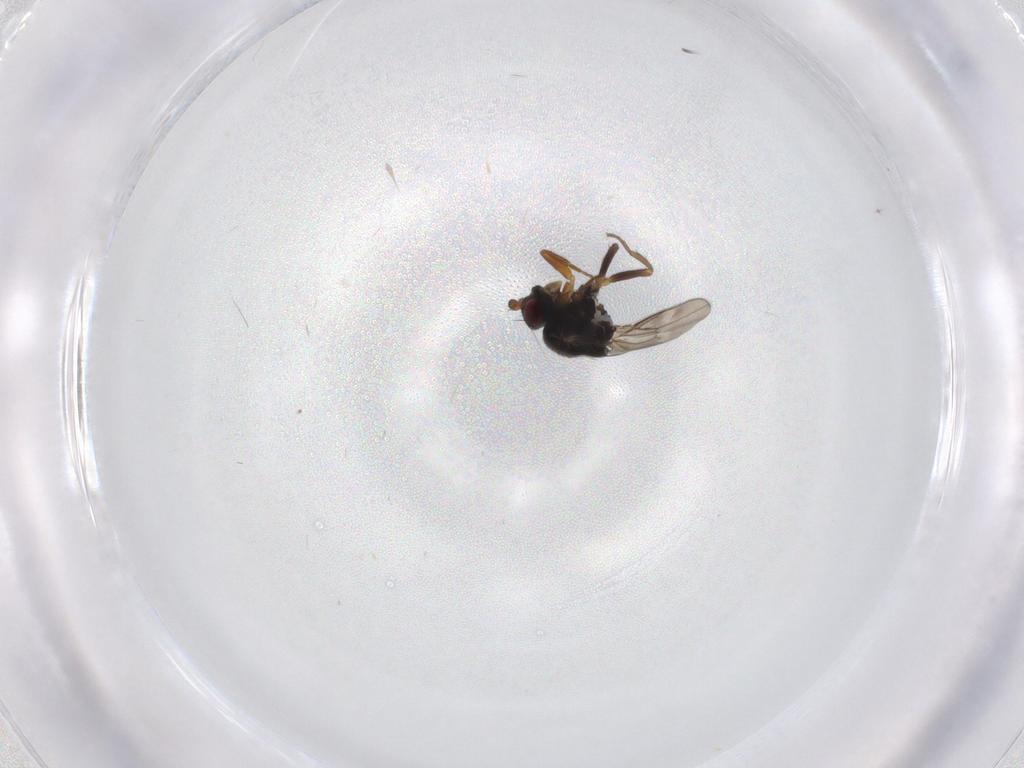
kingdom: Animalia
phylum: Arthropoda
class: Insecta
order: Diptera
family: Sphaeroceridae
